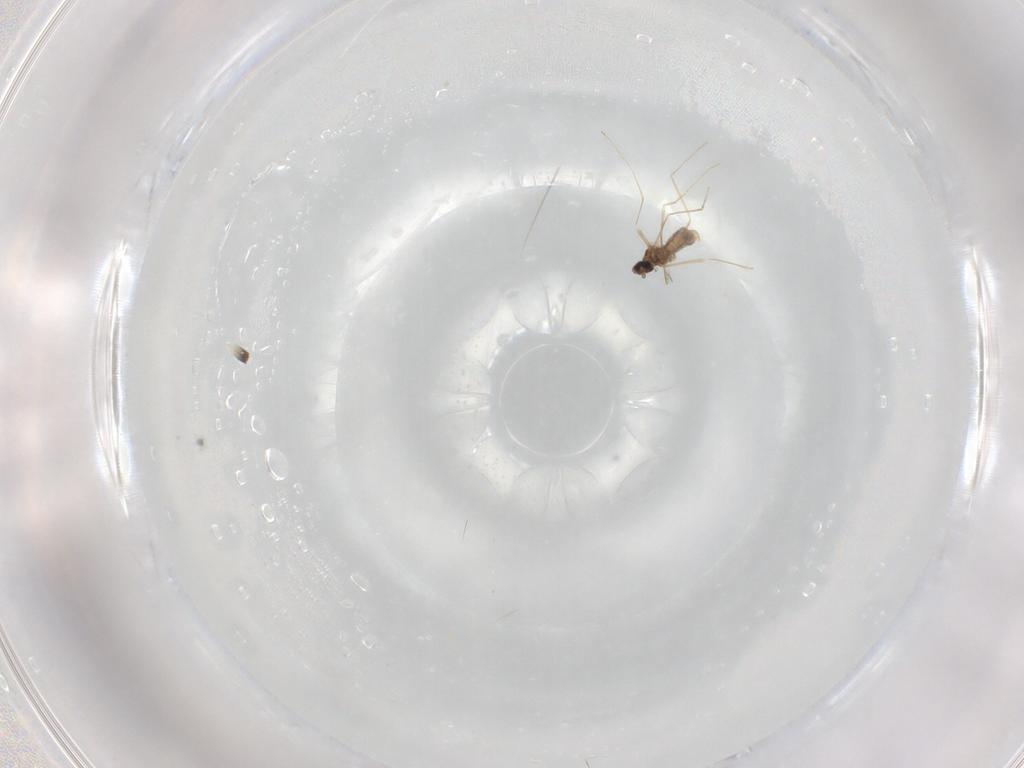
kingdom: Animalia
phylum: Arthropoda
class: Insecta
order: Diptera
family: Cecidomyiidae
